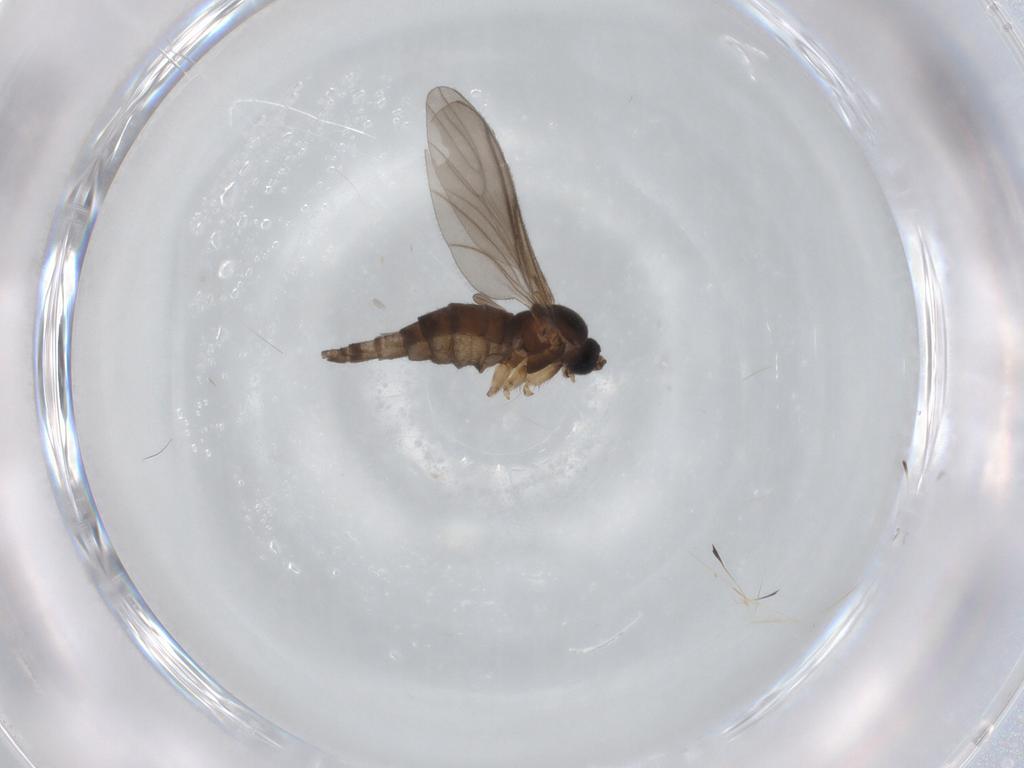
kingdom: Animalia
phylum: Arthropoda
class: Insecta
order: Diptera
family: Sciaridae
